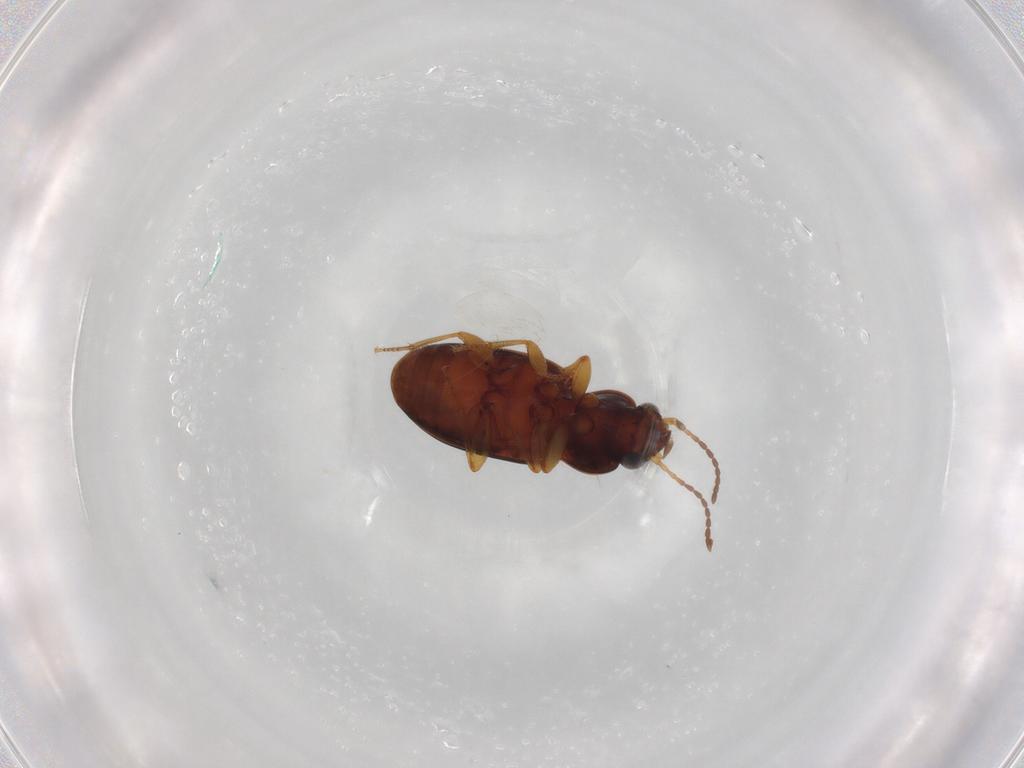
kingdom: Animalia
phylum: Arthropoda
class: Insecta
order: Coleoptera
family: Carabidae
